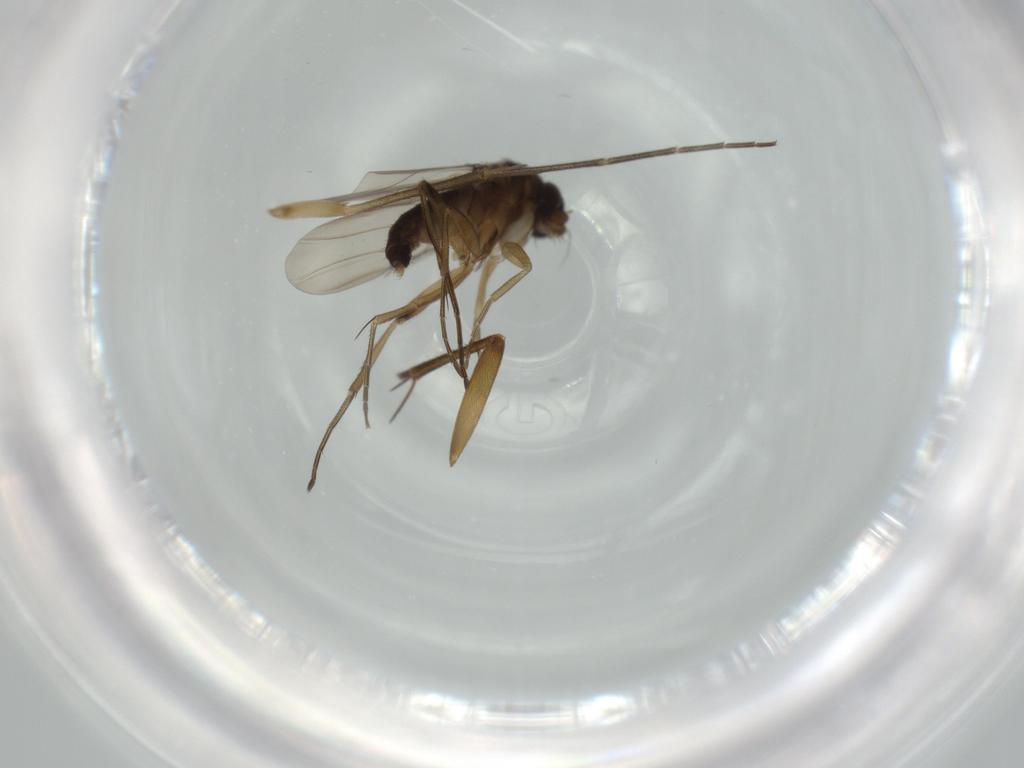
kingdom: Animalia
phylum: Arthropoda
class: Insecta
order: Diptera
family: Phoridae
